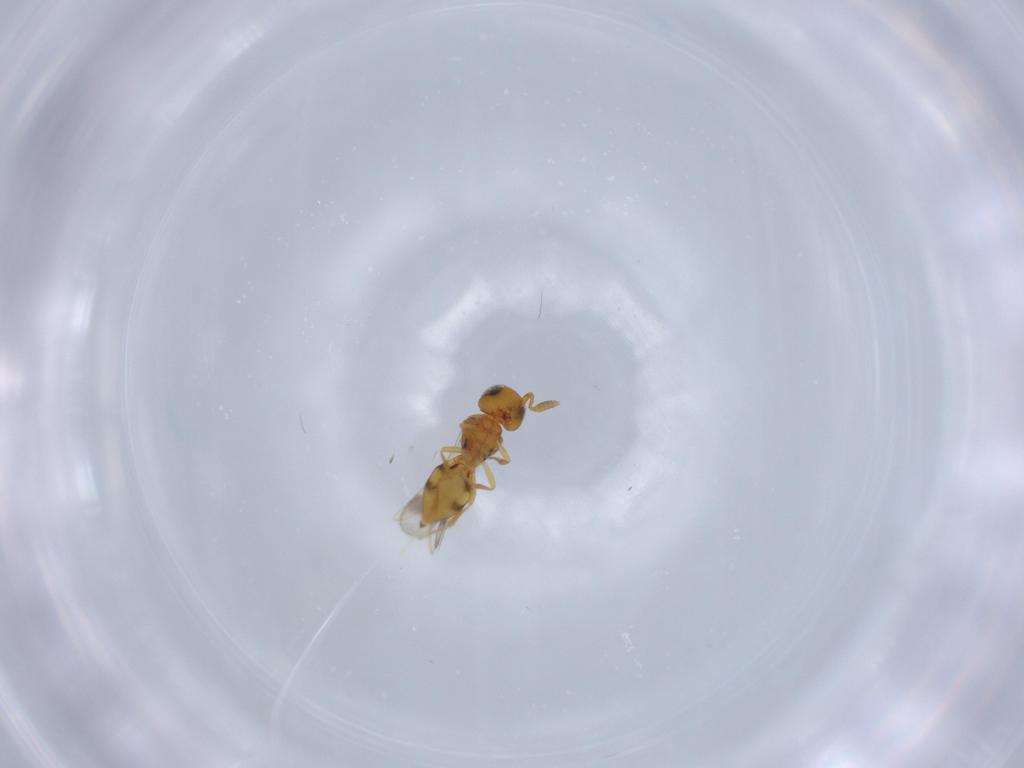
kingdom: Animalia
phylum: Arthropoda
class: Insecta
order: Hymenoptera
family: Scelionidae
